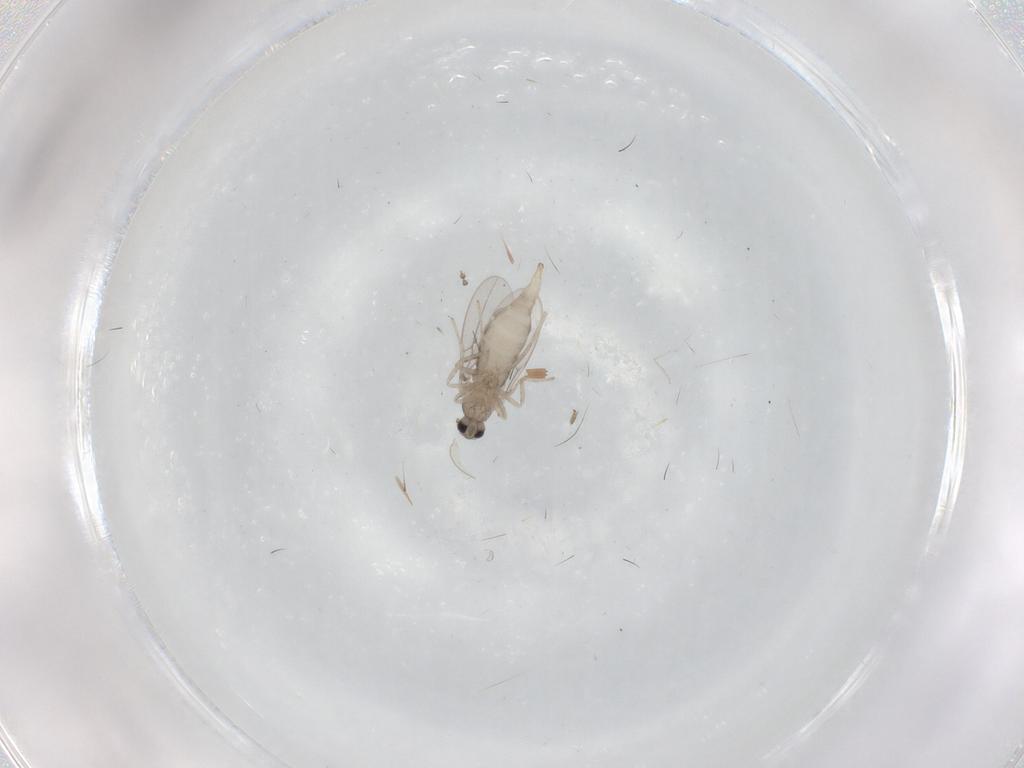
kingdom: Animalia
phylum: Arthropoda
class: Insecta
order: Diptera
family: Cecidomyiidae
